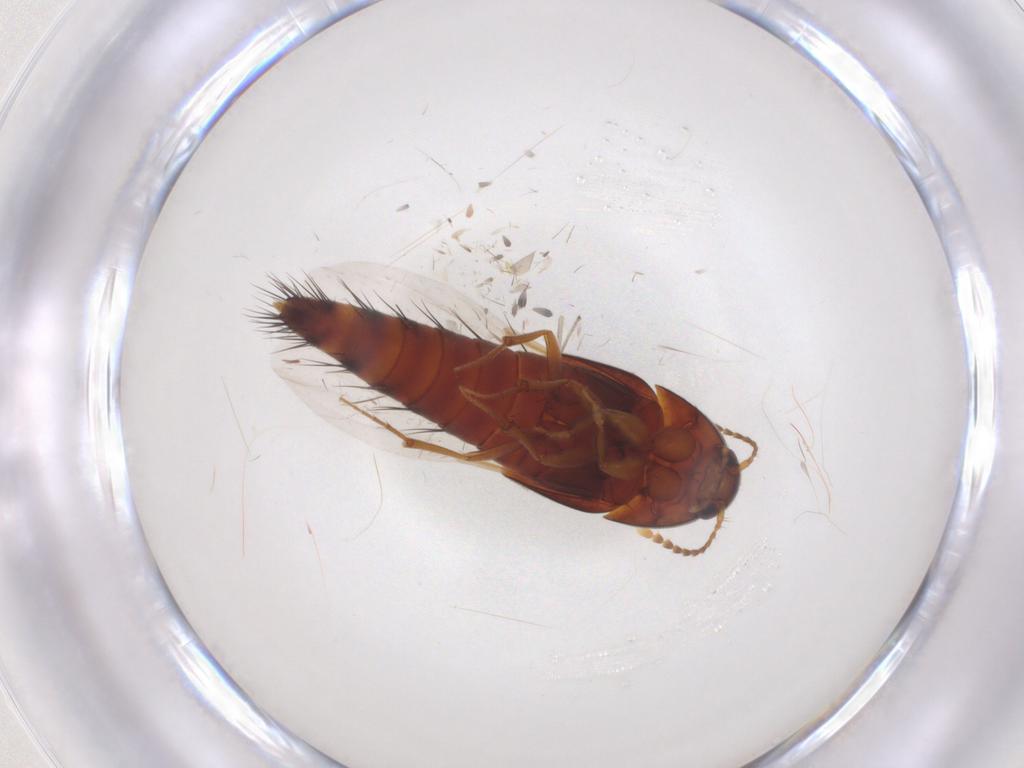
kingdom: Animalia
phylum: Arthropoda
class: Insecta
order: Coleoptera
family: Staphylinidae
